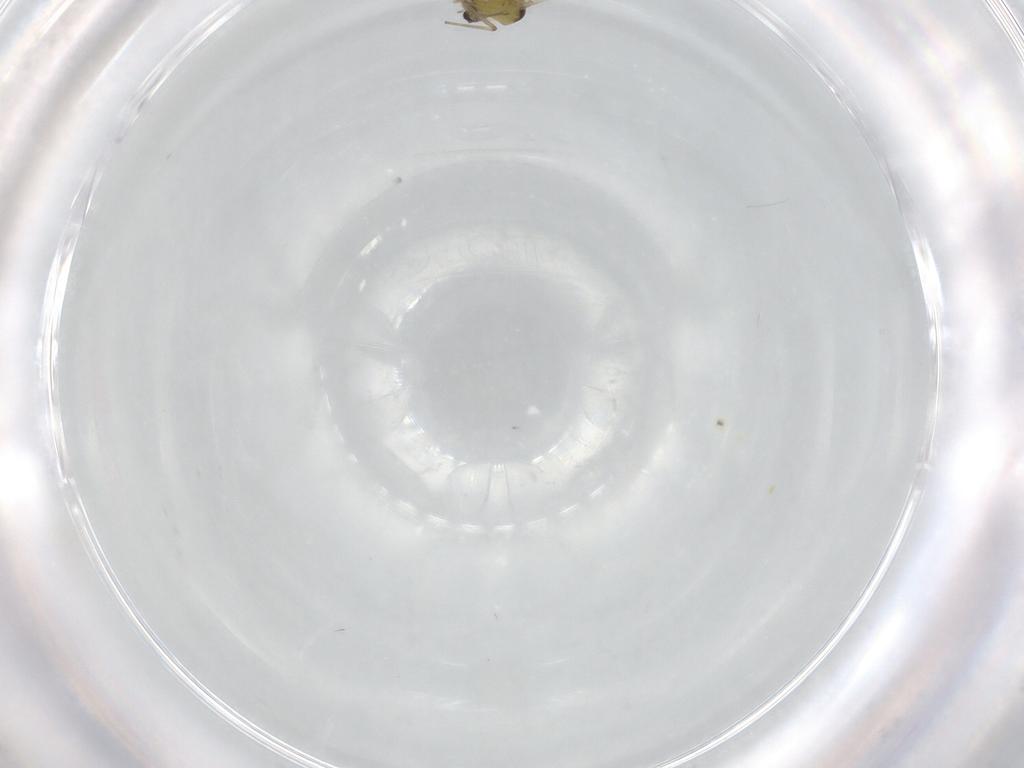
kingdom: Animalia
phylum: Arthropoda
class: Insecta
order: Diptera
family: Chironomidae
